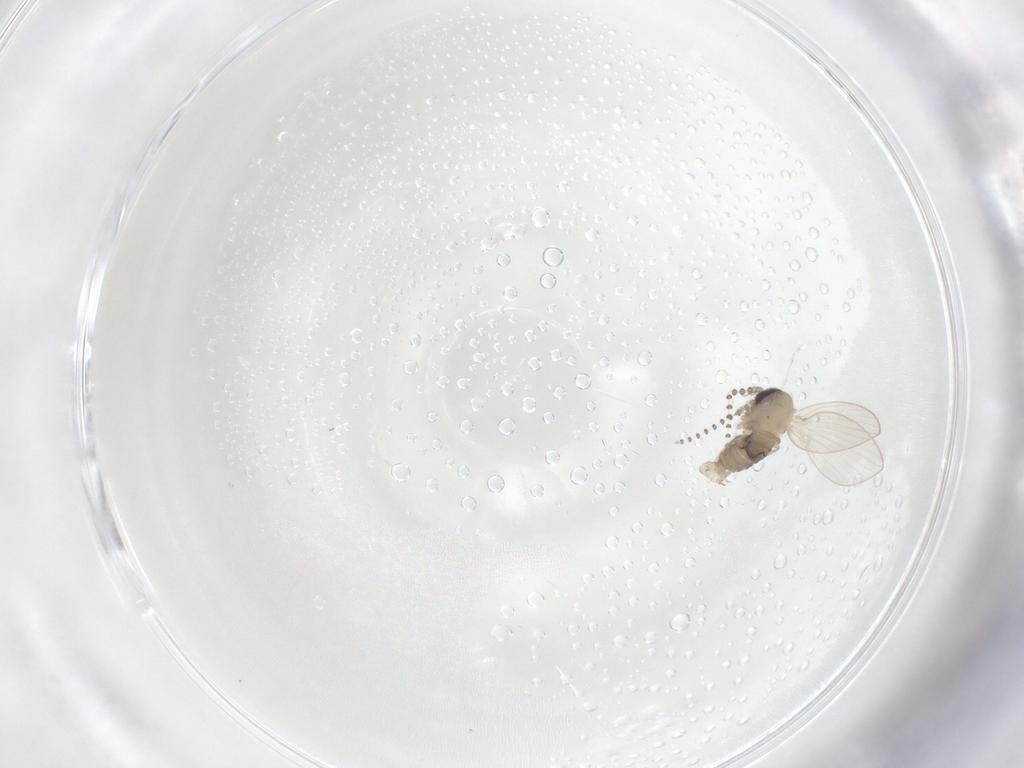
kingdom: Animalia
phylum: Arthropoda
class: Insecta
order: Diptera
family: Psychodidae
